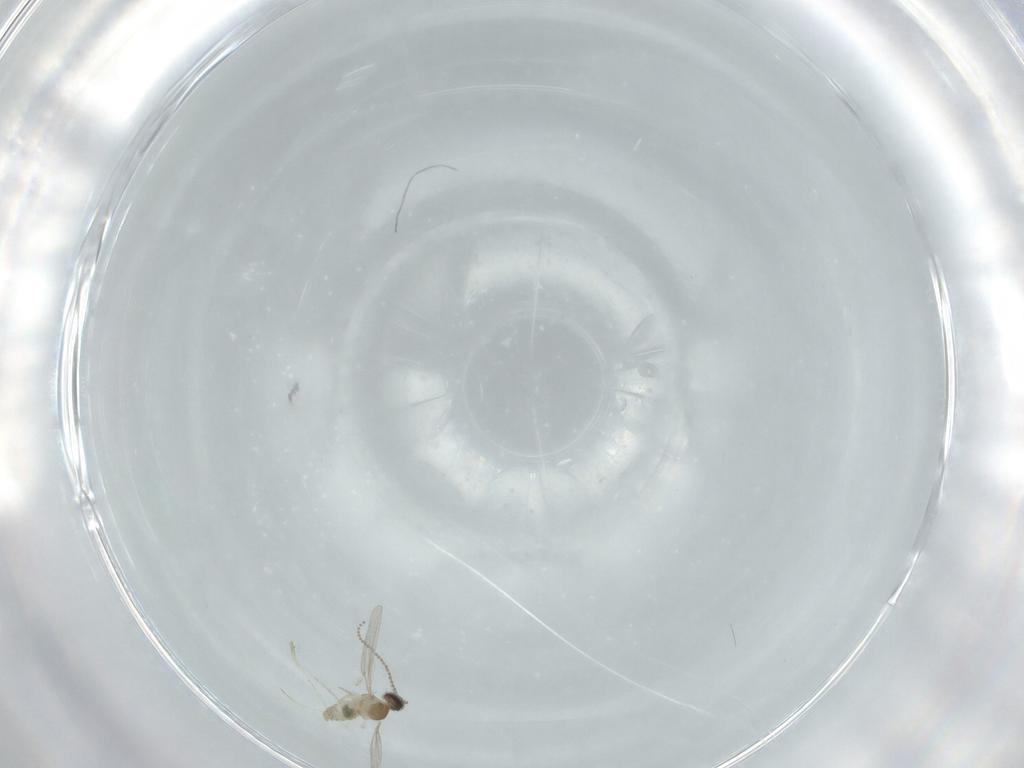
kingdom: Animalia
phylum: Arthropoda
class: Insecta
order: Diptera
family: Cecidomyiidae
